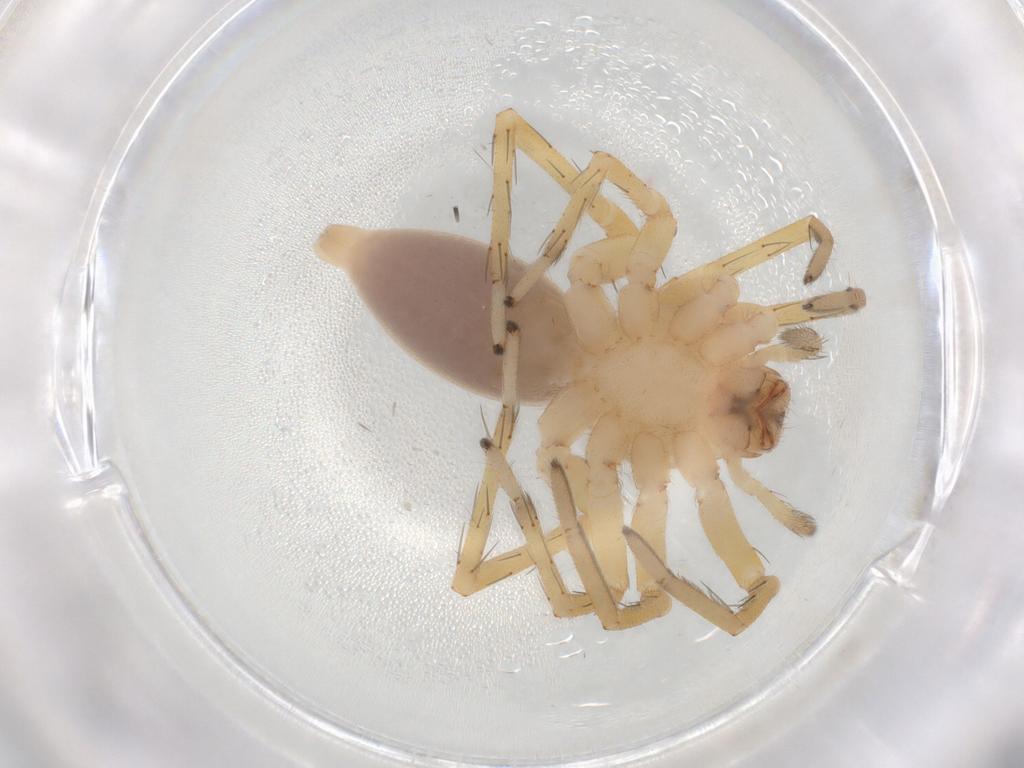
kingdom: Animalia
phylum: Arthropoda
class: Arachnida
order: Araneae
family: Salticidae
